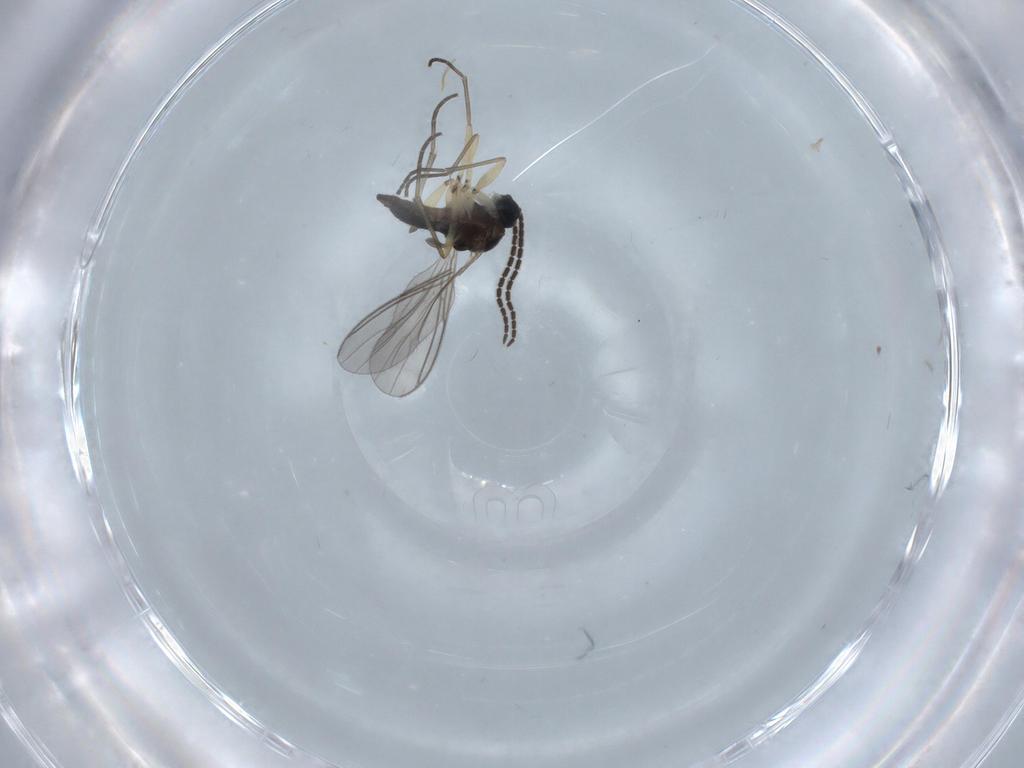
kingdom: Animalia
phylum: Arthropoda
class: Insecta
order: Diptera
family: Sciaridae
